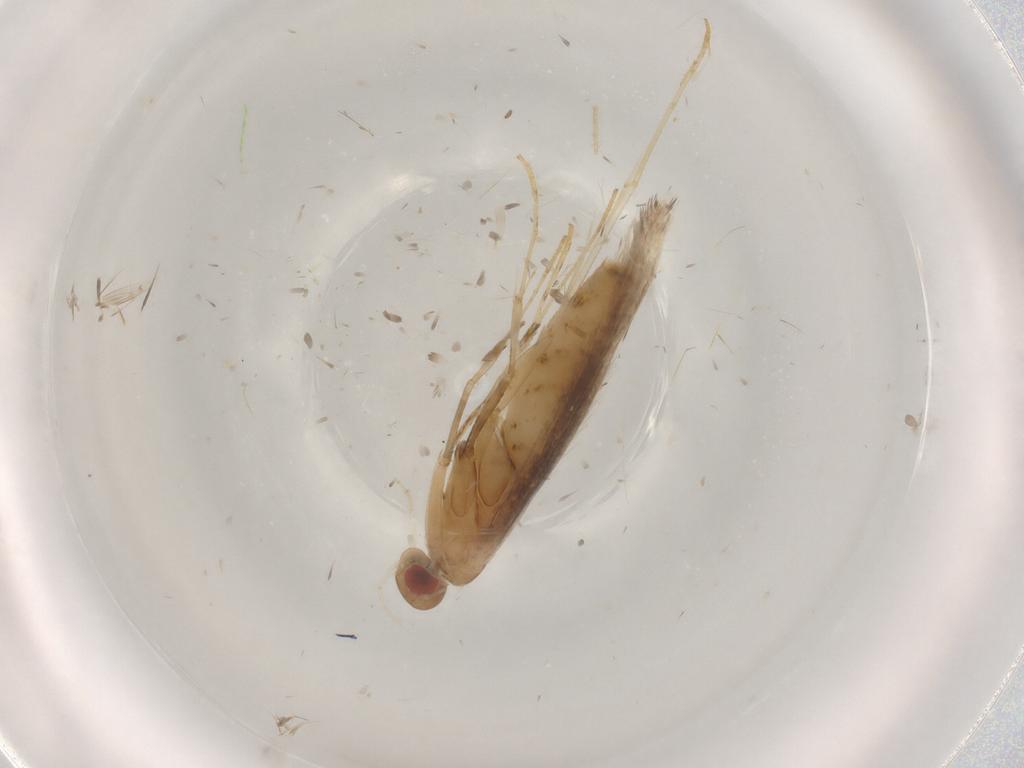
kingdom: Animalia
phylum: Arthropoda
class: Insecta
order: Lepidoptera
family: Gracillariidae
